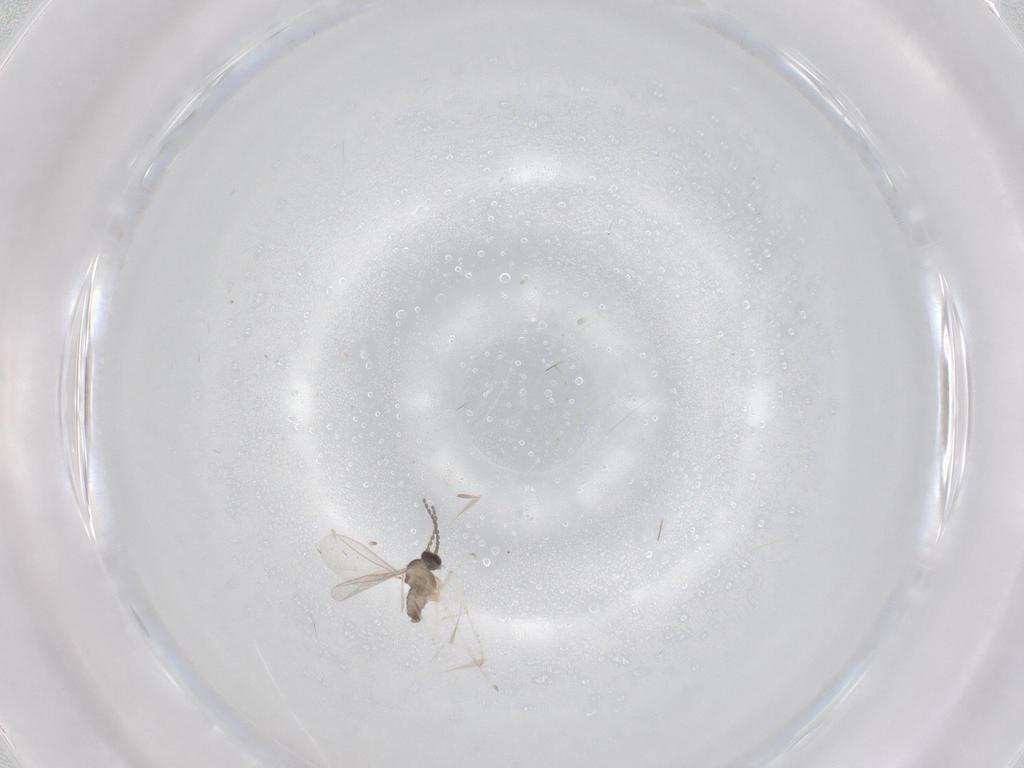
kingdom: Animalia
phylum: Arthropoda
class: Insecta
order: Diptera
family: Cecidomyiidae
